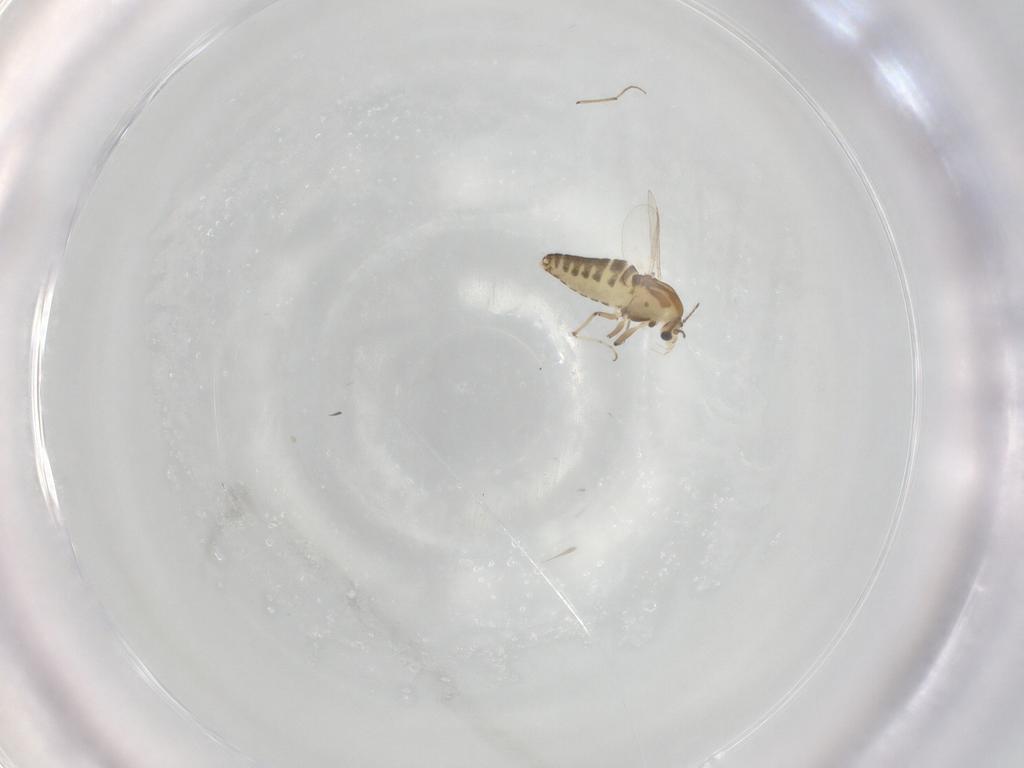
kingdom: Animalia
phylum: Arthropoda
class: Insecta
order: Diptera
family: Chironomidae
